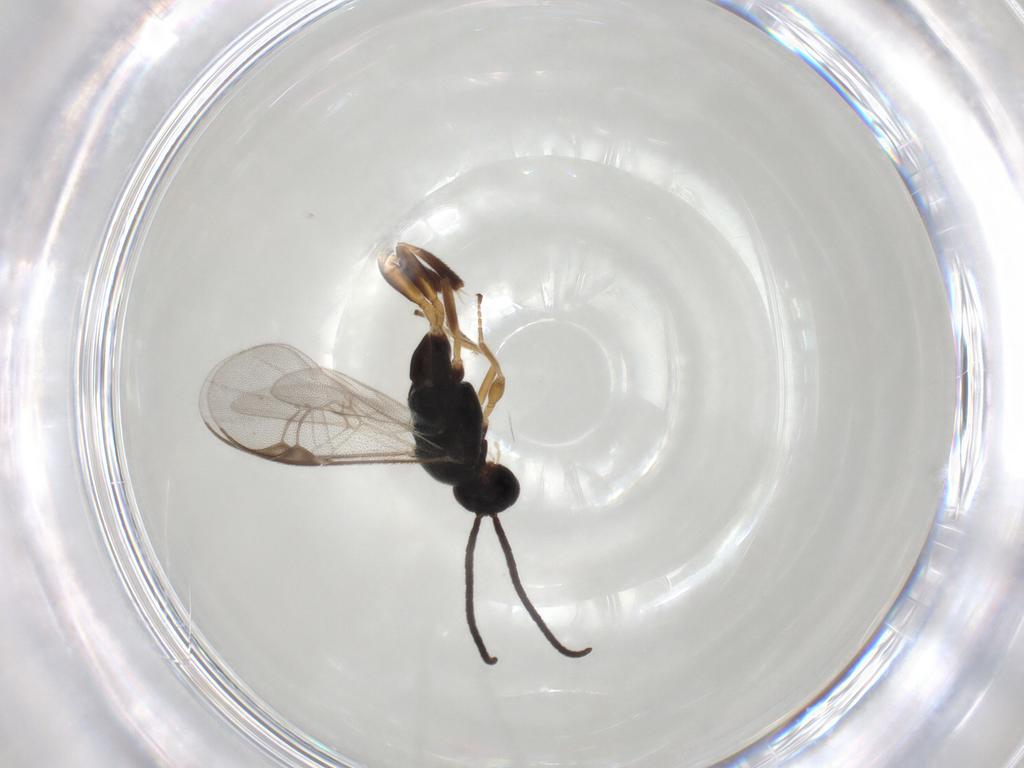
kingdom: Animalia
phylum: Arthropoda
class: Insecta
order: Hymenoptera
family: Braconidae
